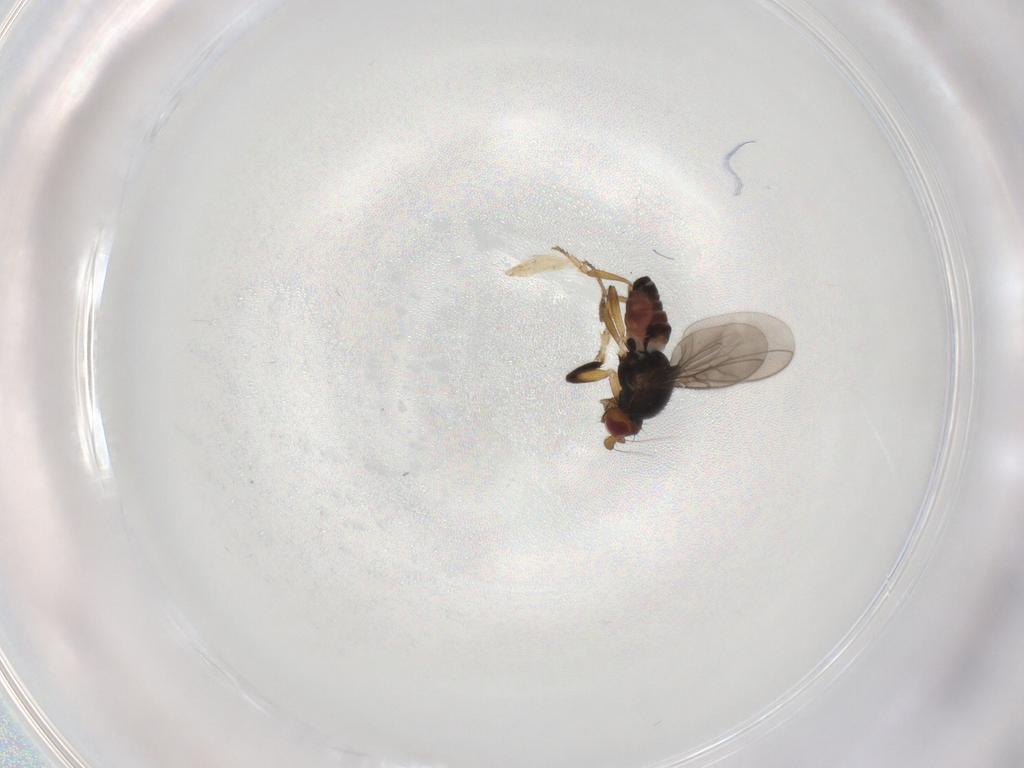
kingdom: Animalia
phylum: Arthropoda
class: Insecta
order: Diptera
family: Sphaeroceridae
